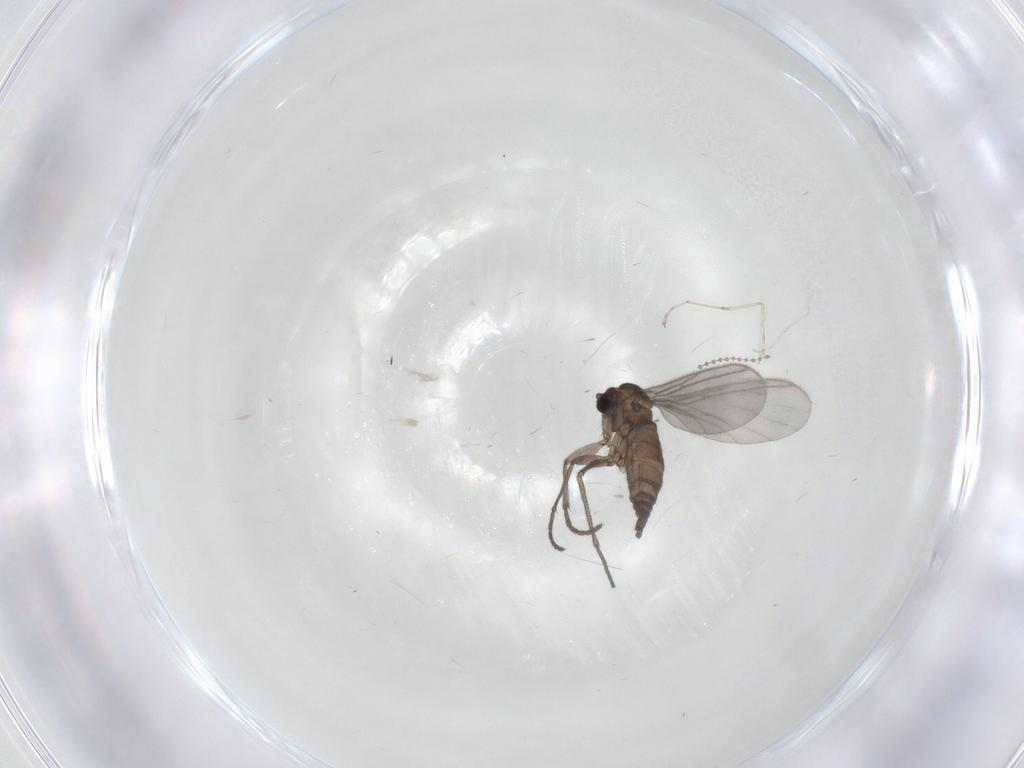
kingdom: Animalia
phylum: Arthropoda
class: Insecta
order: Diptera
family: Sciaridae
